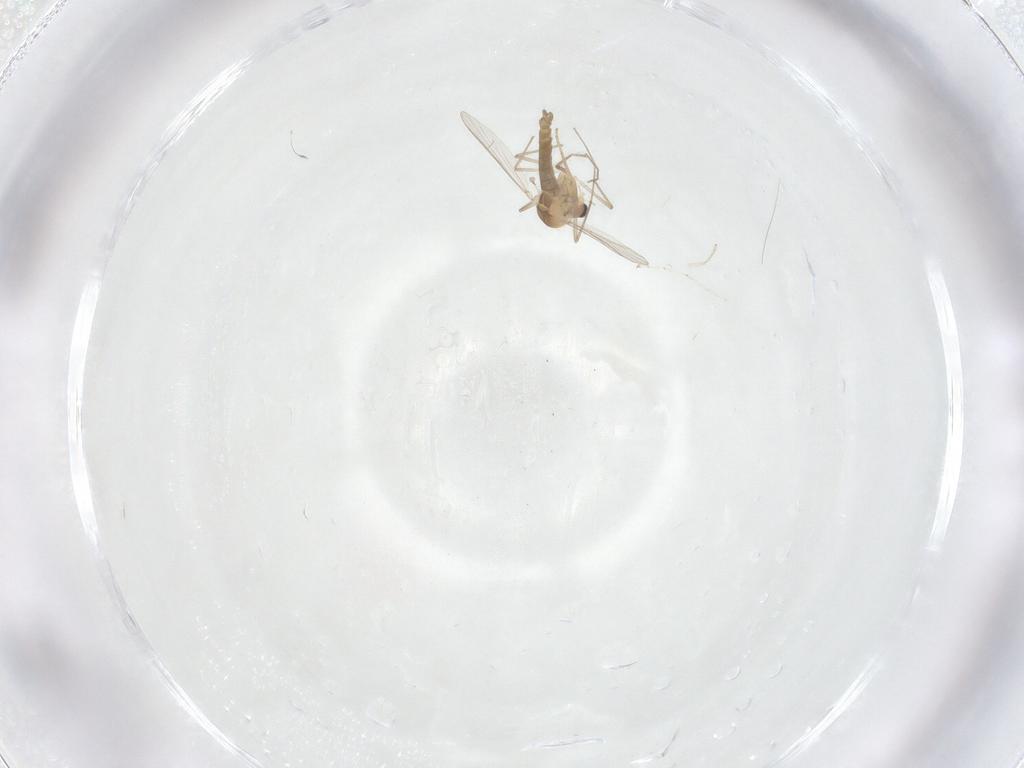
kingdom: Animalia
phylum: Arthropoda
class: Insecta
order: Diptera
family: Chironomidae
